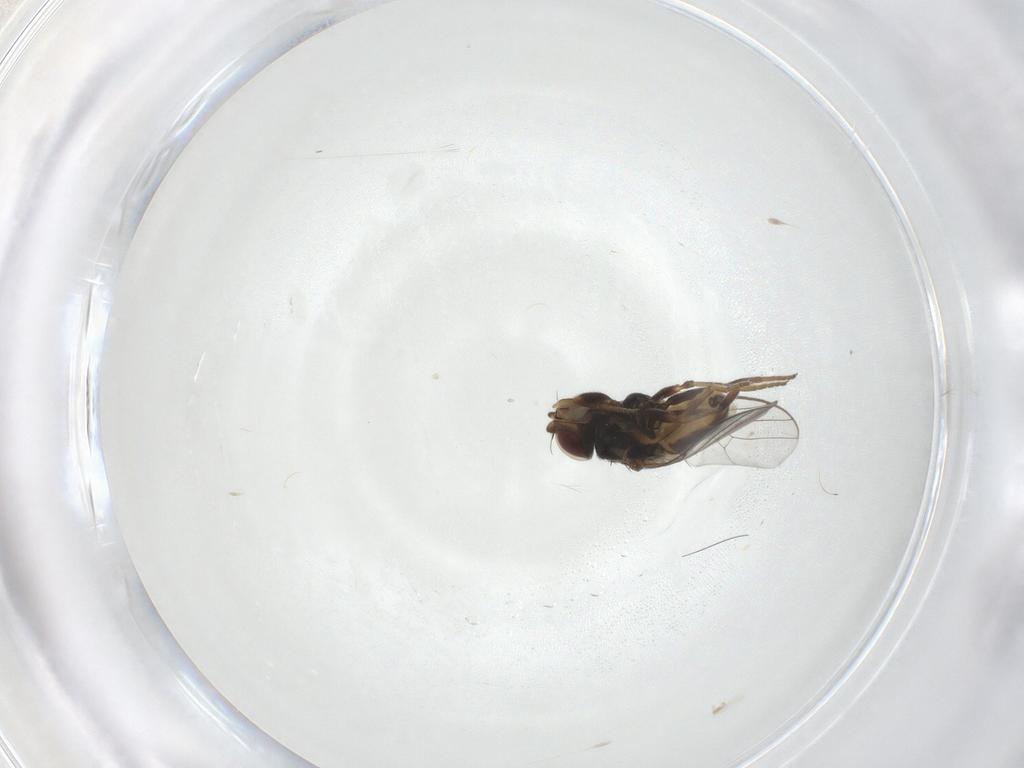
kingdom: Animalia
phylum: Arthropoda
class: Insecta
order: Diptera
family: Chloropidae
